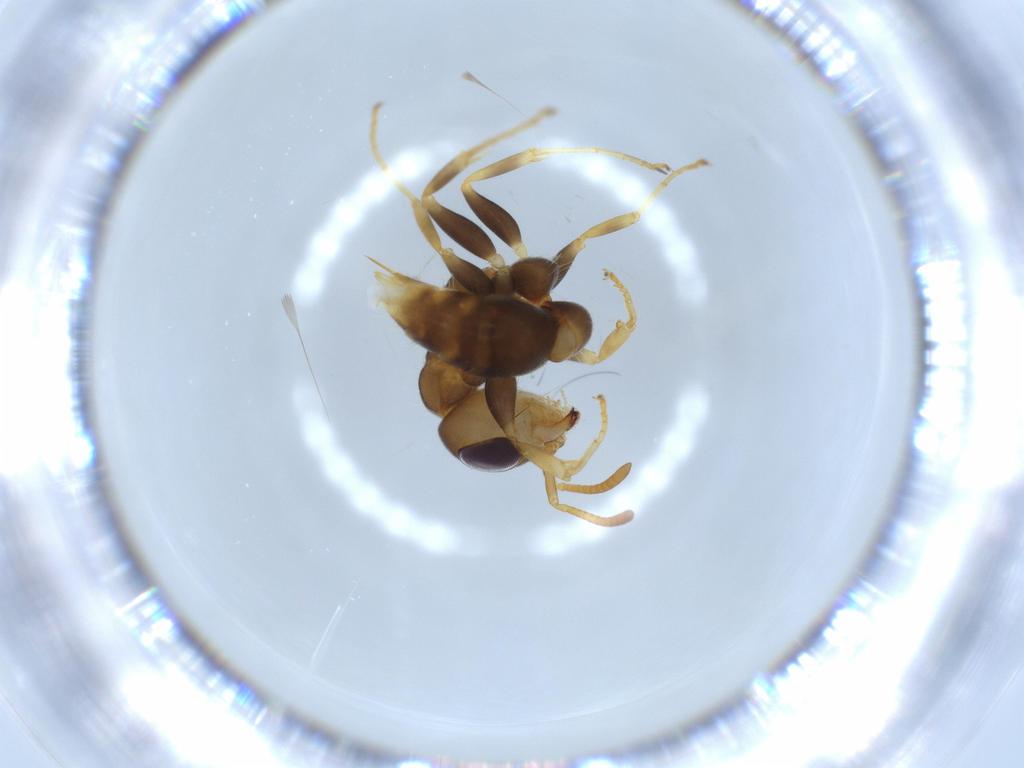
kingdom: Animalia
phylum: Arthropoda
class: Insecta
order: Hymenoptera
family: Formicidae
